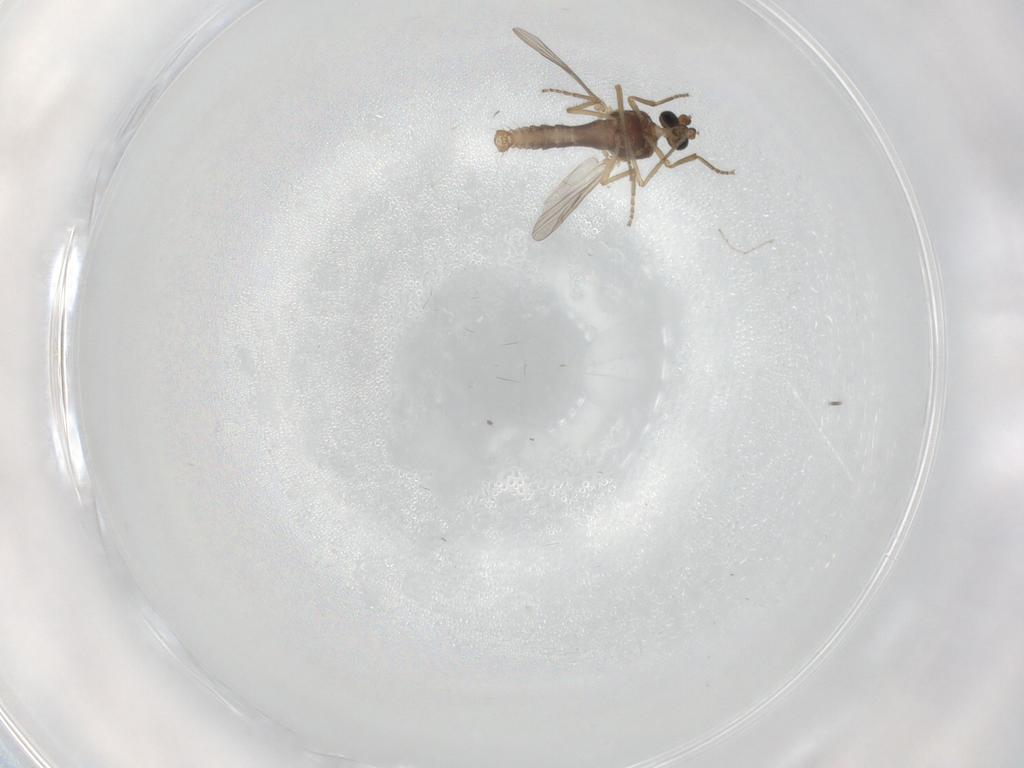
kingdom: Animalia
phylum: Arthropoda
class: Insecta
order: Diptera
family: Ceratopogonidae
